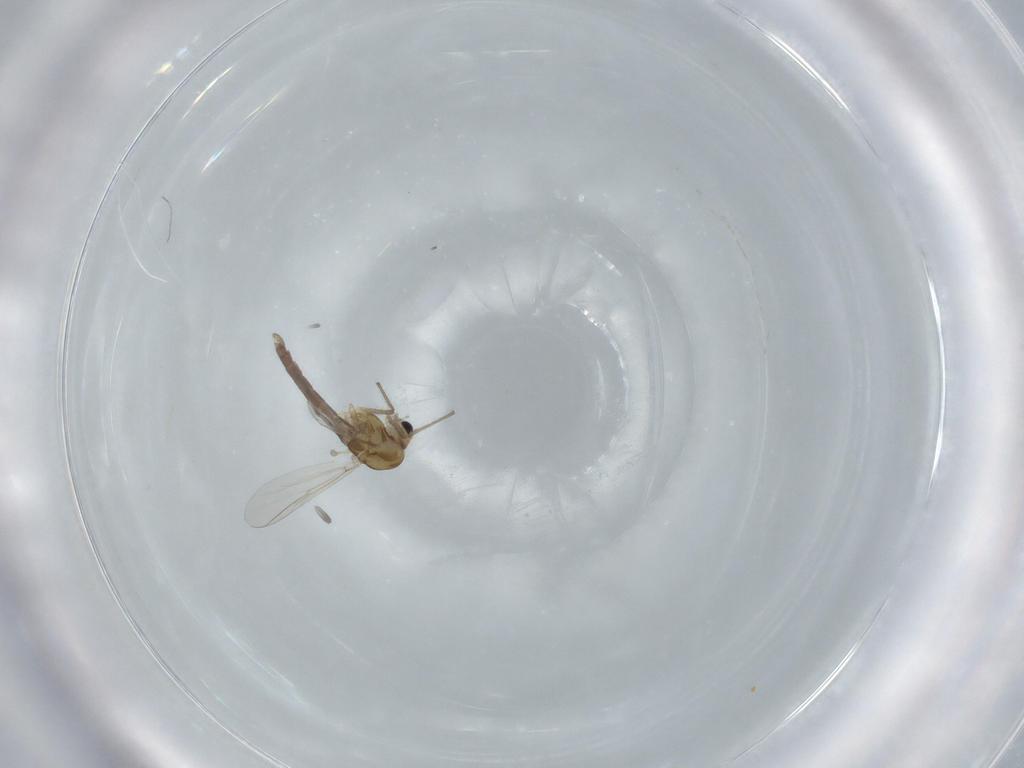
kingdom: Animalia
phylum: Arthropoda
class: Insecta
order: Diptera
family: Chironomidae
